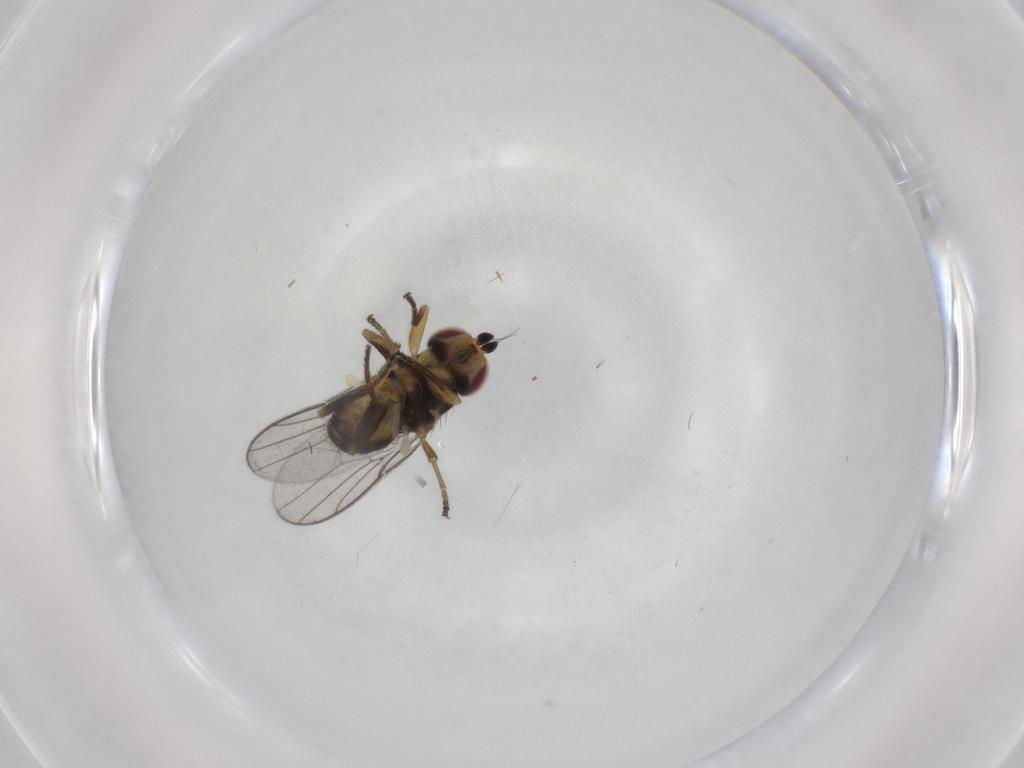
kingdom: Animalia
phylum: Arthropoda
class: Insecta
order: Diptera
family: Chloropidae
